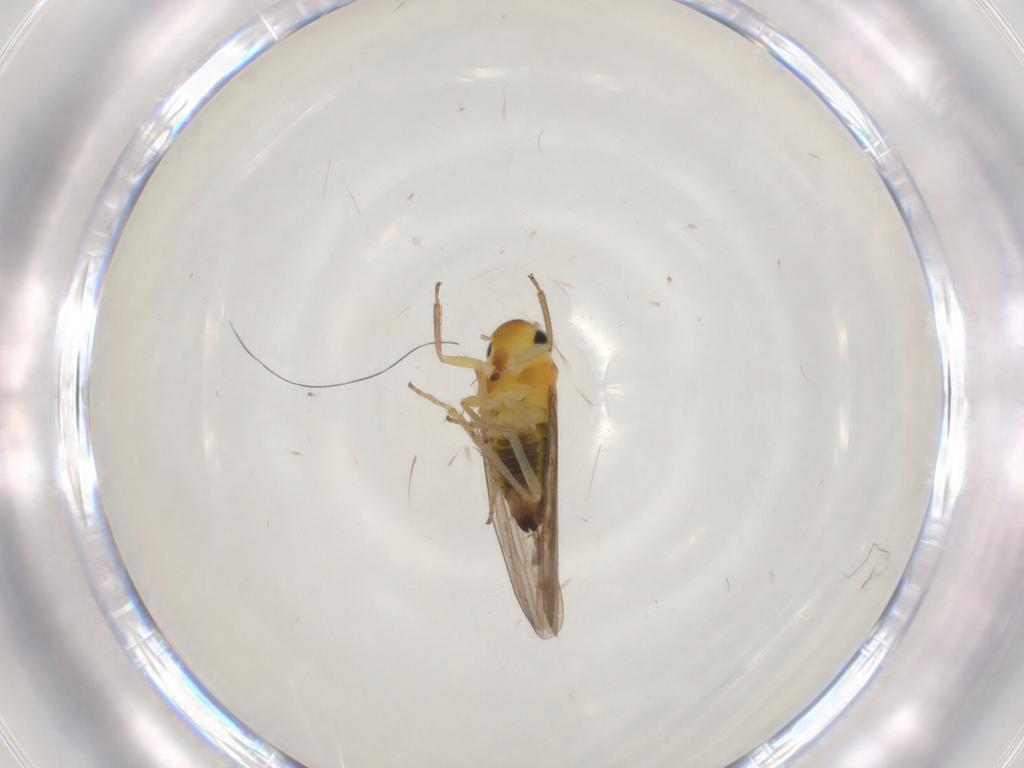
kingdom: Animalia
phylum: Arthropoda
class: Insecta
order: Hemiptera
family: Cicadellidae
